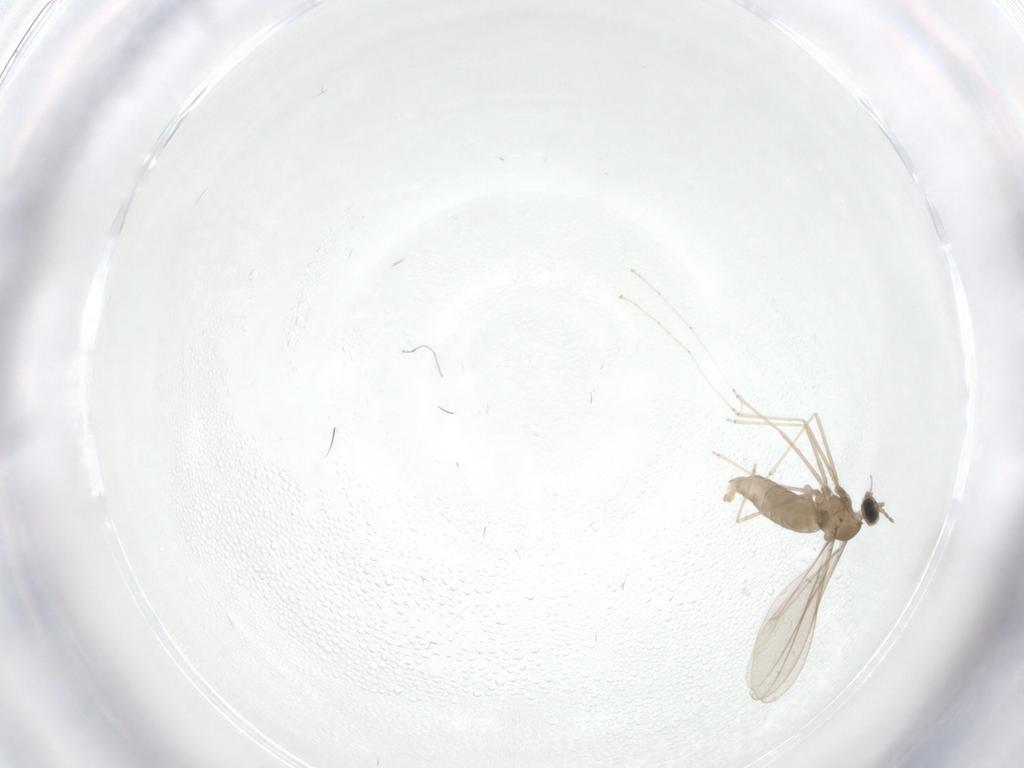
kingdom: Animalia
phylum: Arthropoda
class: Insecta
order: Diptera
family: Cecidomyiidae
